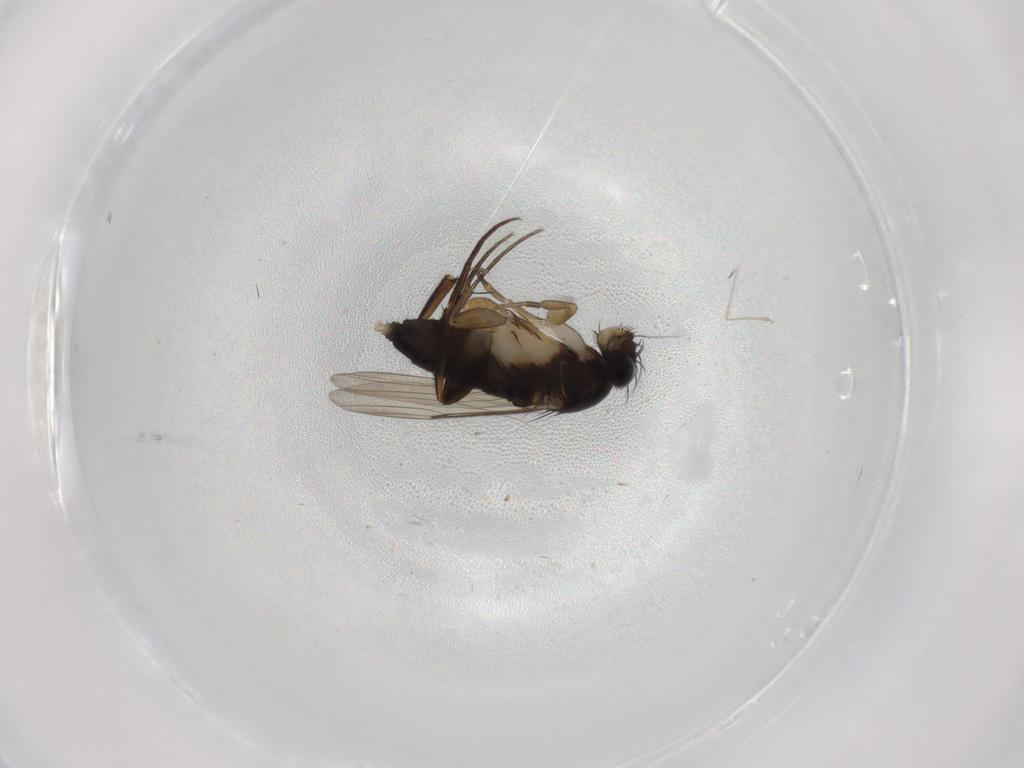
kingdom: Animalia
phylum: Arthropoda
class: Insecta
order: Diptera
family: Phoridae
